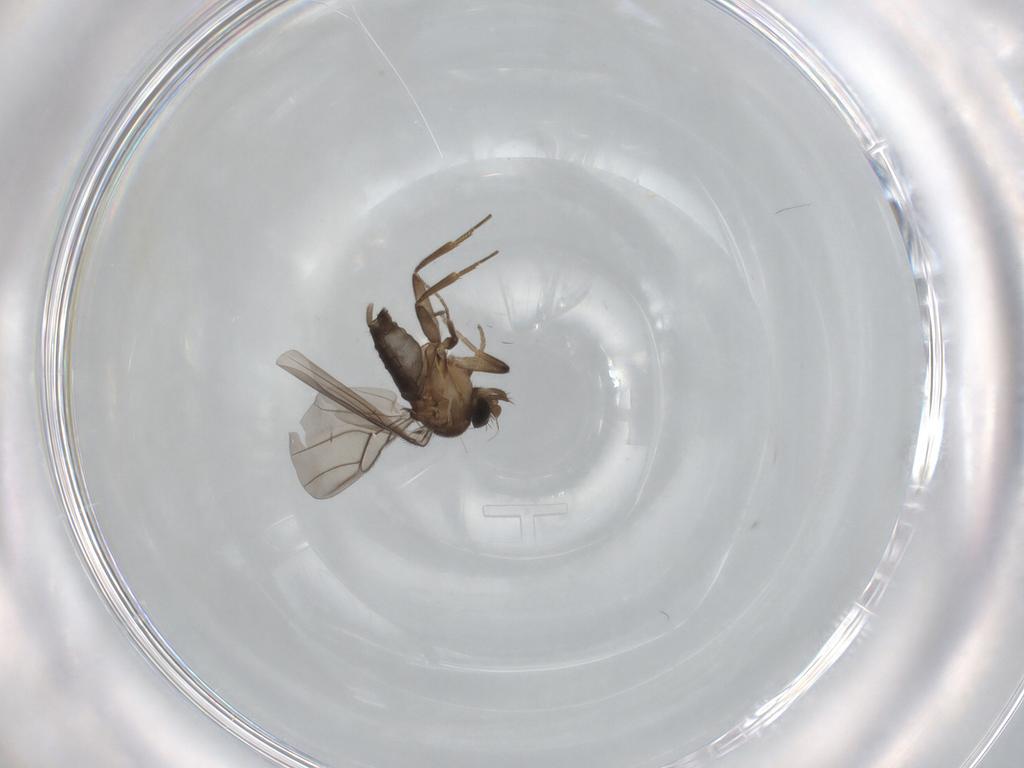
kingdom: Animalia
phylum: Arthropoda
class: Insecta
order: Diptera
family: Phoridae
